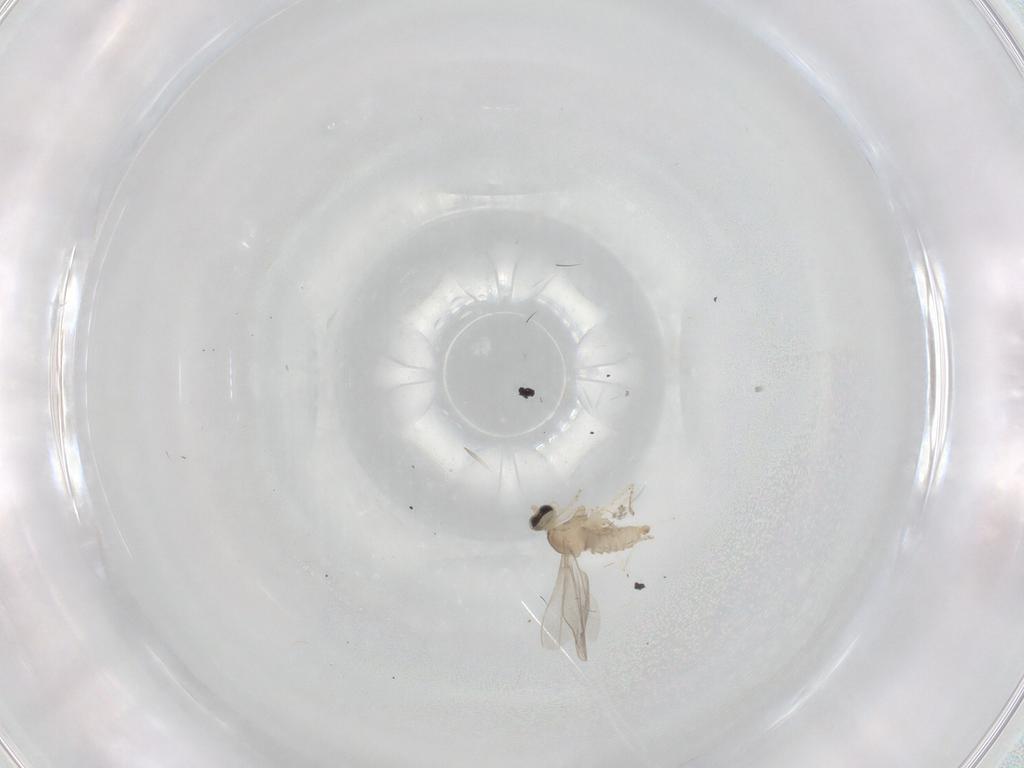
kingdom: Animalia
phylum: Arthropoda
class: Insecta
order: Diptera
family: Cecidomyiidae
